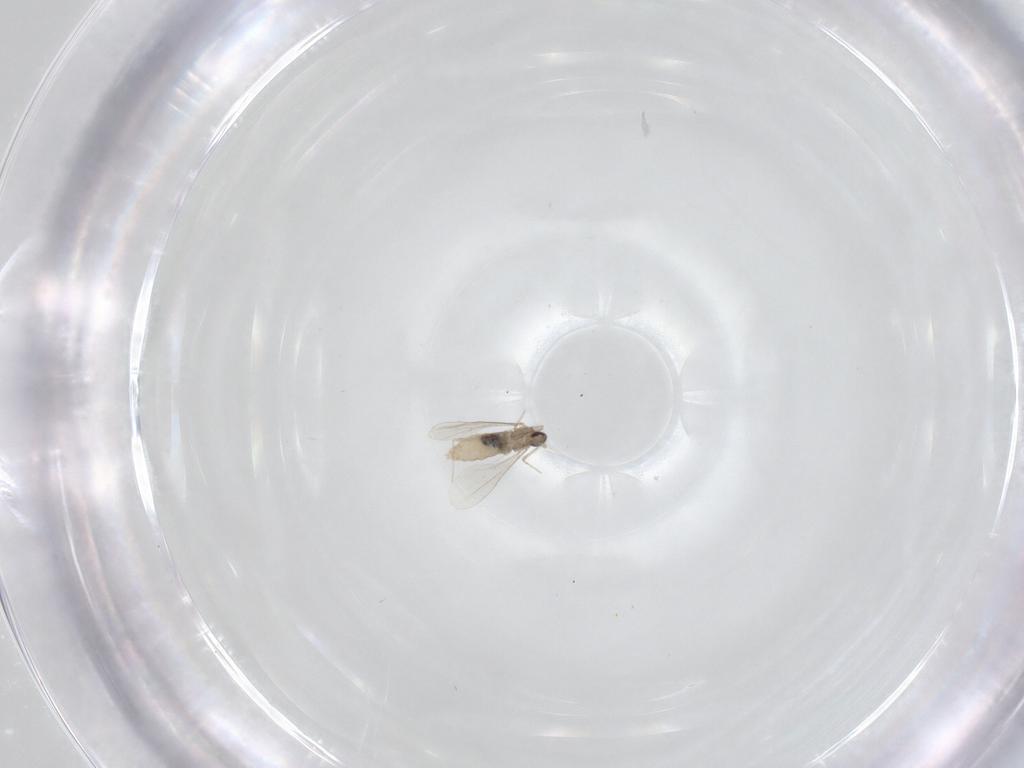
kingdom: Animalia
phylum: Arthropoda
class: Insecta
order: Diptera
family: Cecidomyiidae
